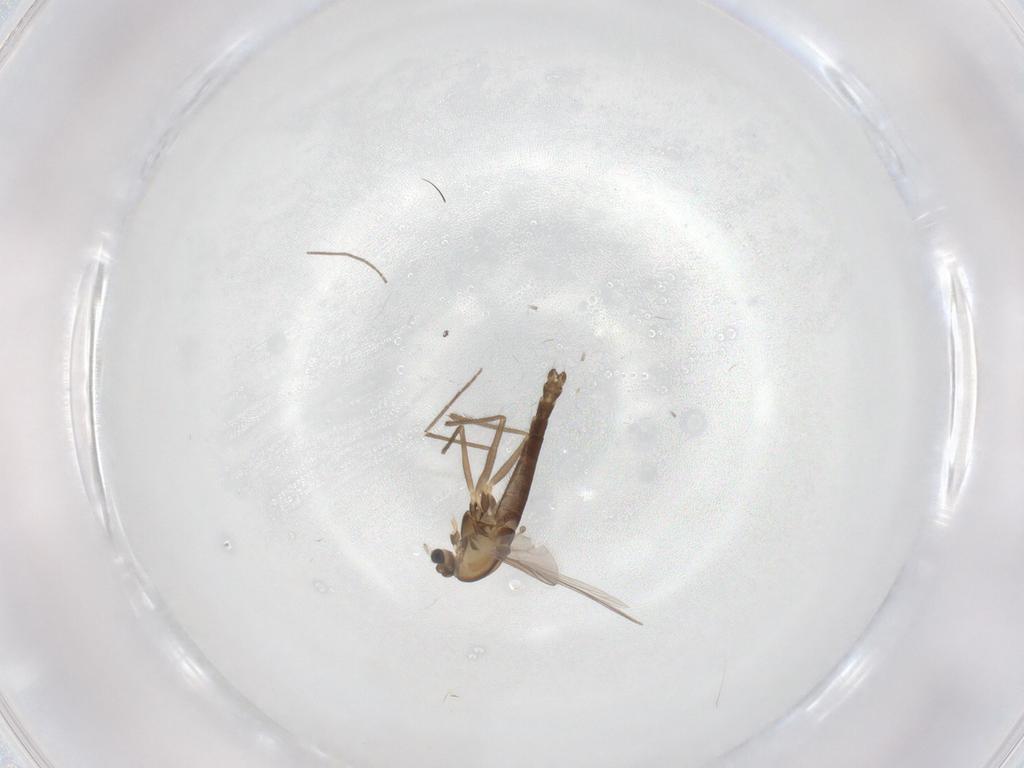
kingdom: Animalia
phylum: Arthropoda
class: Insecta
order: Diptera
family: Chironomidae
